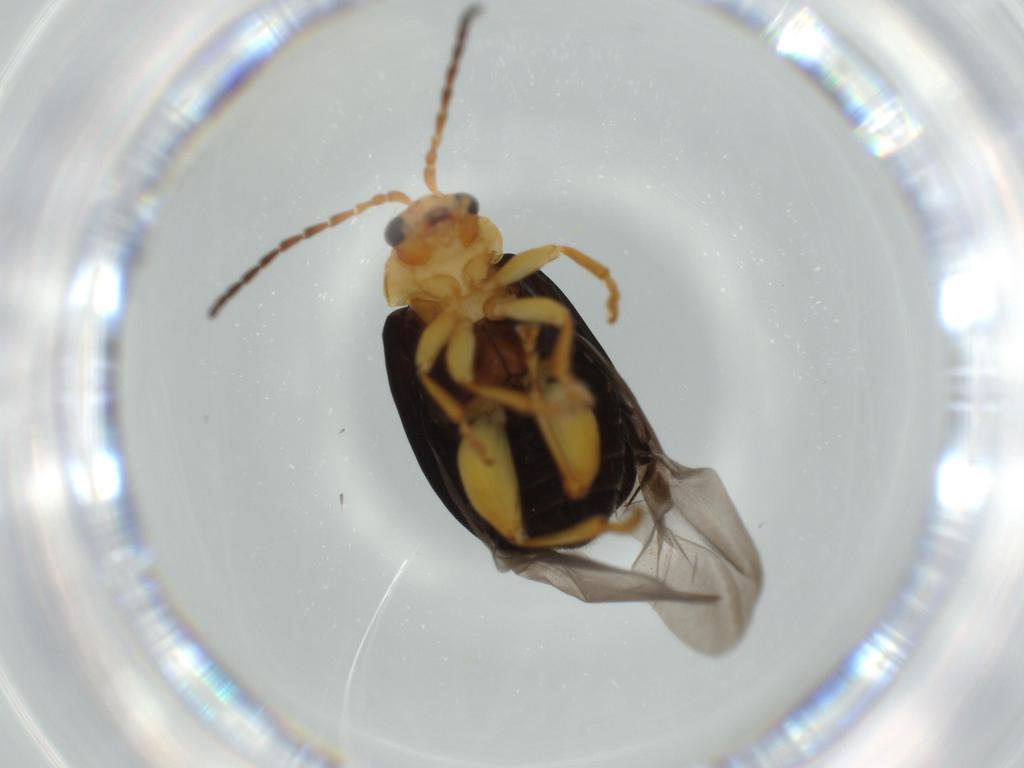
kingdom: Animalia
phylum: Arthropoda
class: Insecta
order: Coleoptera
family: Chrysomelidae
